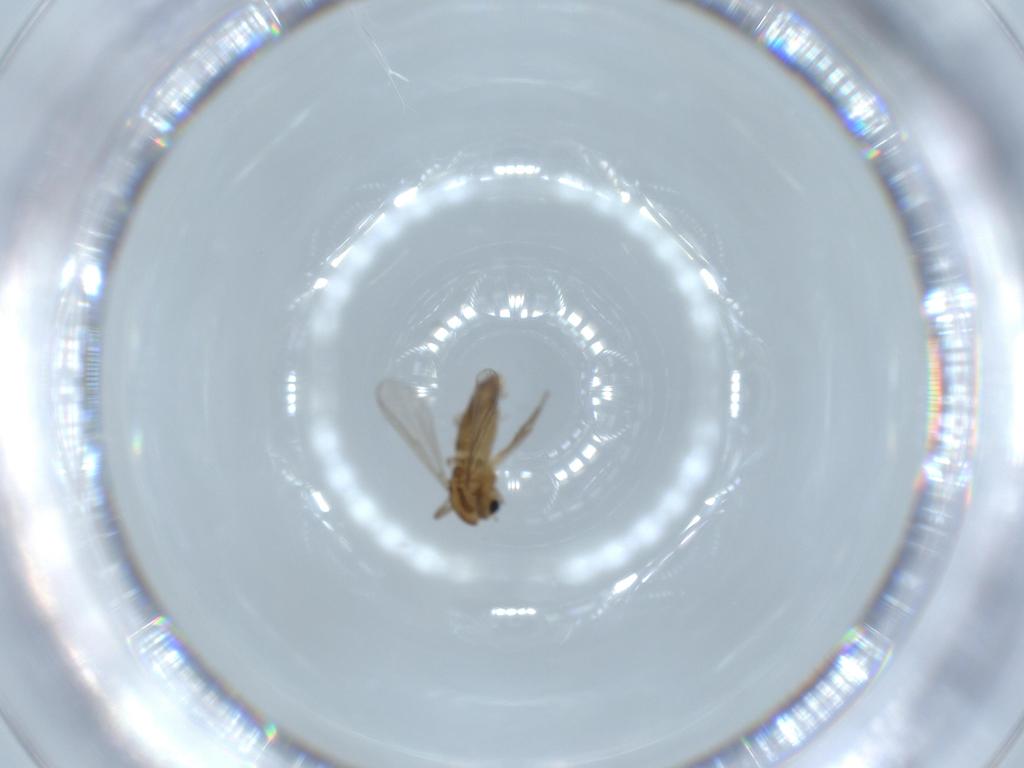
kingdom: Animalia
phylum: Arthropoda
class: Insecta
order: Diptera
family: Chironomidae
